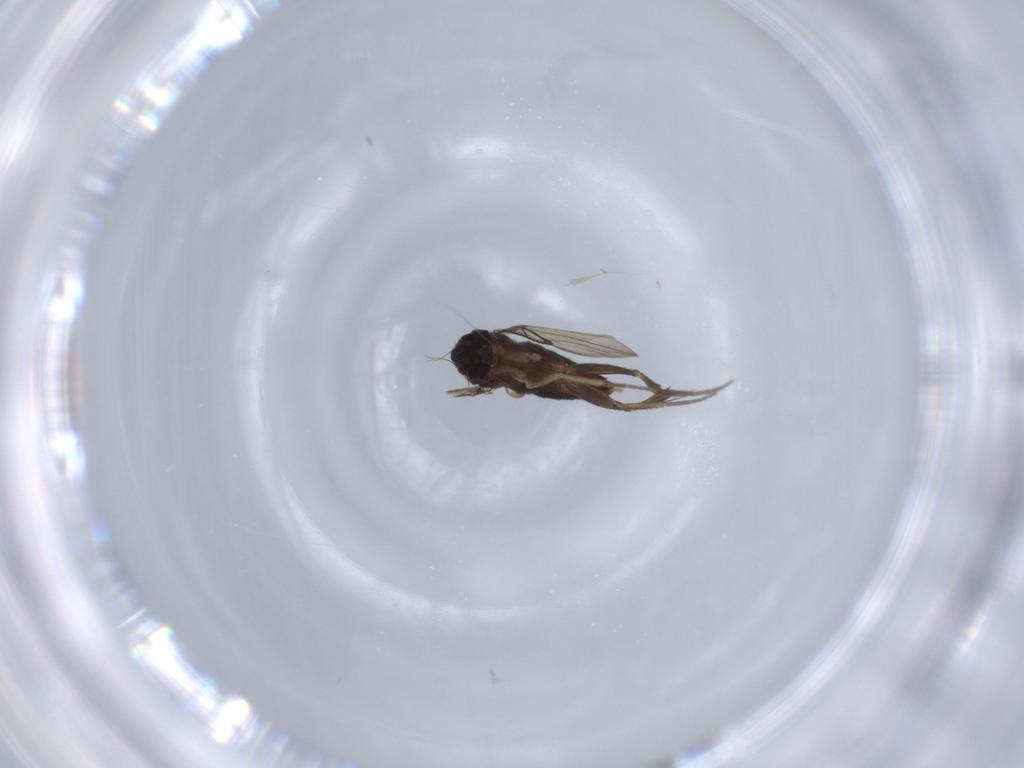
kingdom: Animalia
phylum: Arthropoda
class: Insecta
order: Diptera
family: Phoridae
